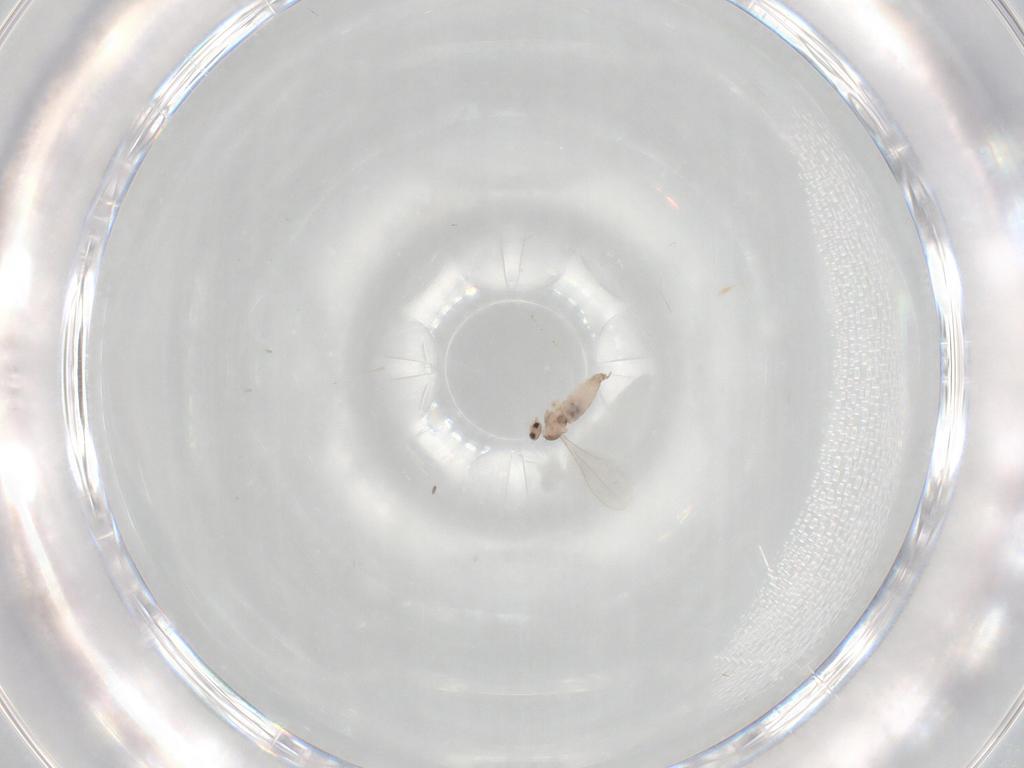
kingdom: Animalia
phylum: Arthropoda
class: Insecta
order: Diptera
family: Cecidomyiidae
